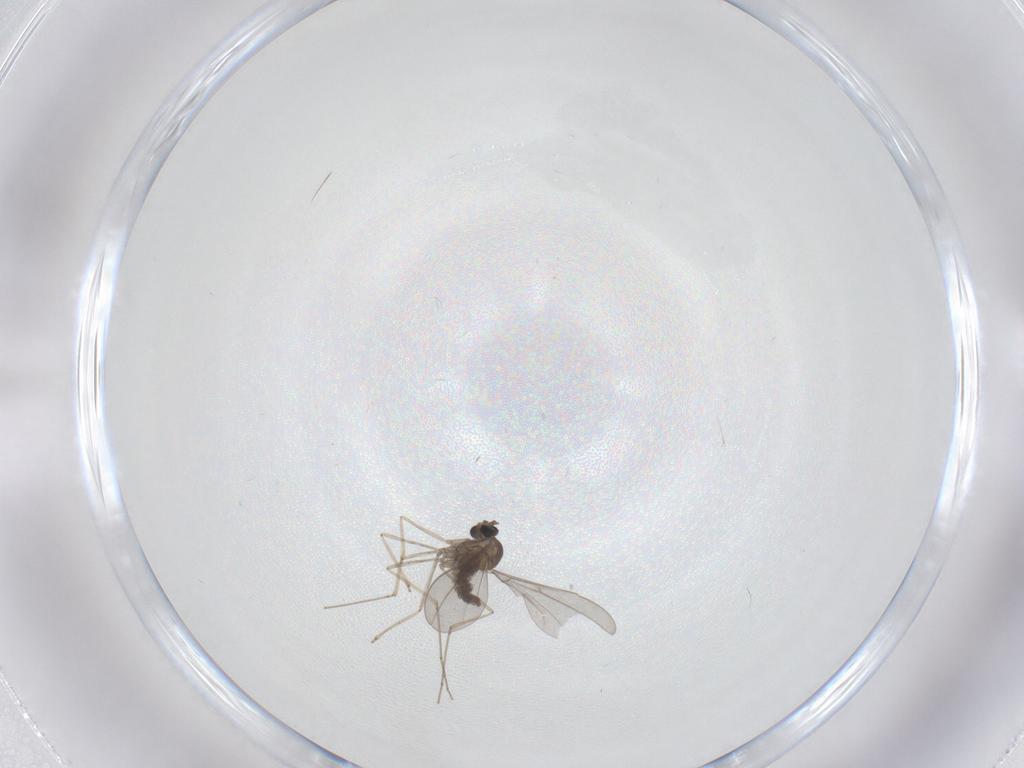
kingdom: Animalia
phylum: Arthropoda
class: Insecta
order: Diptera
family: Cecidomyiidae
